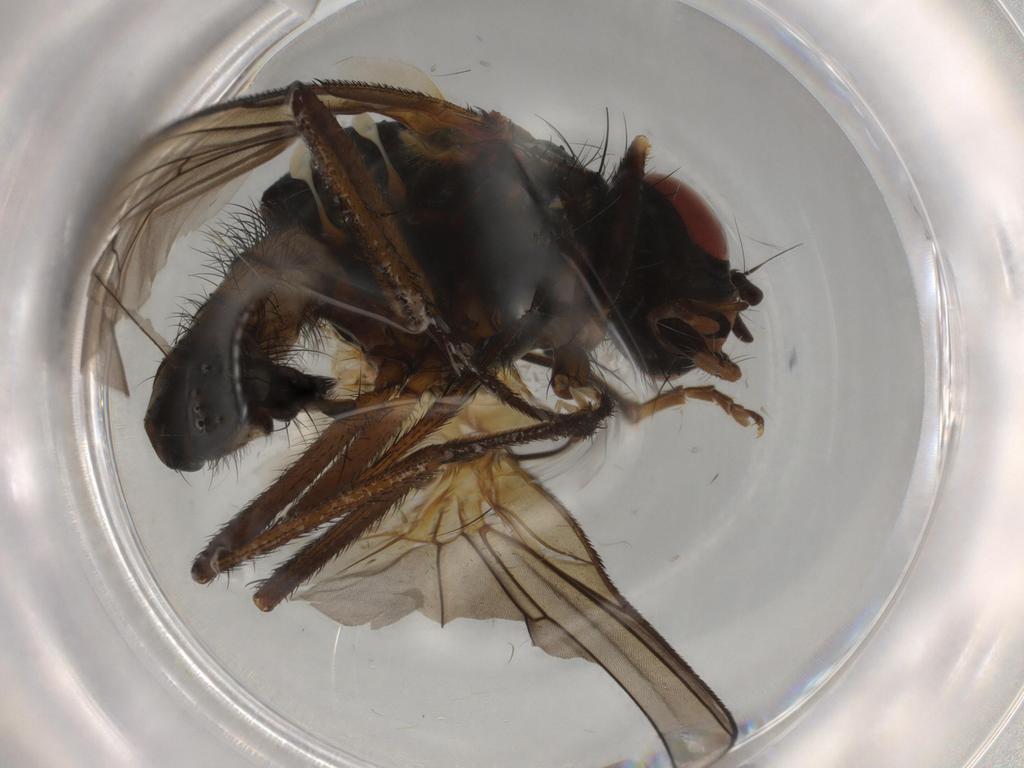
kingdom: Animalia
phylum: Arthropoda
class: Insecta
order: Diptera
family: Anthomyiidae
